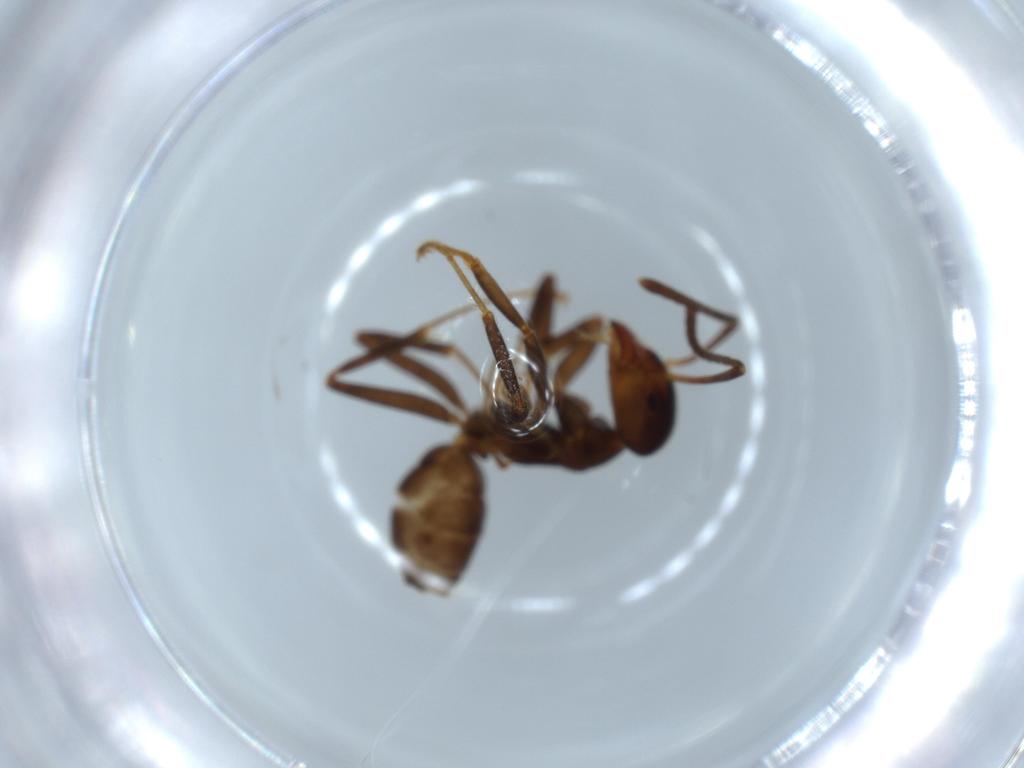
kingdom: Animalia
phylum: Arthropoda
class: Insecta
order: Hymenoptera
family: Formicidae
